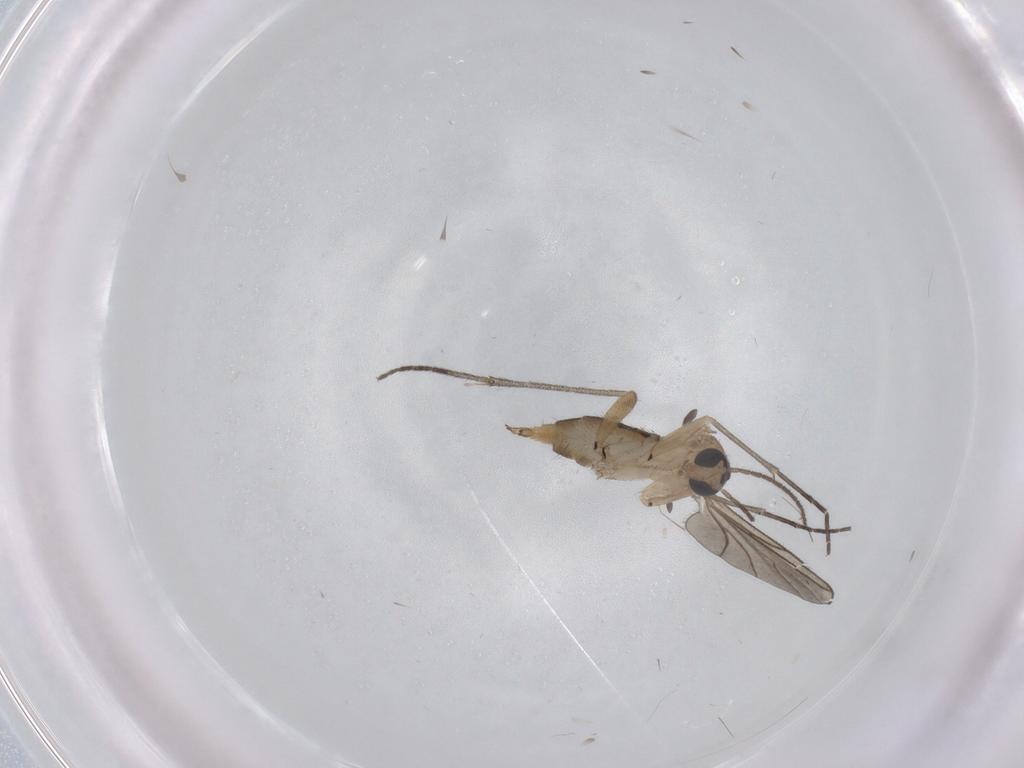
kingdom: Animalia
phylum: Arthropoda
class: Insecta
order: Diptera
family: Sciaridae
